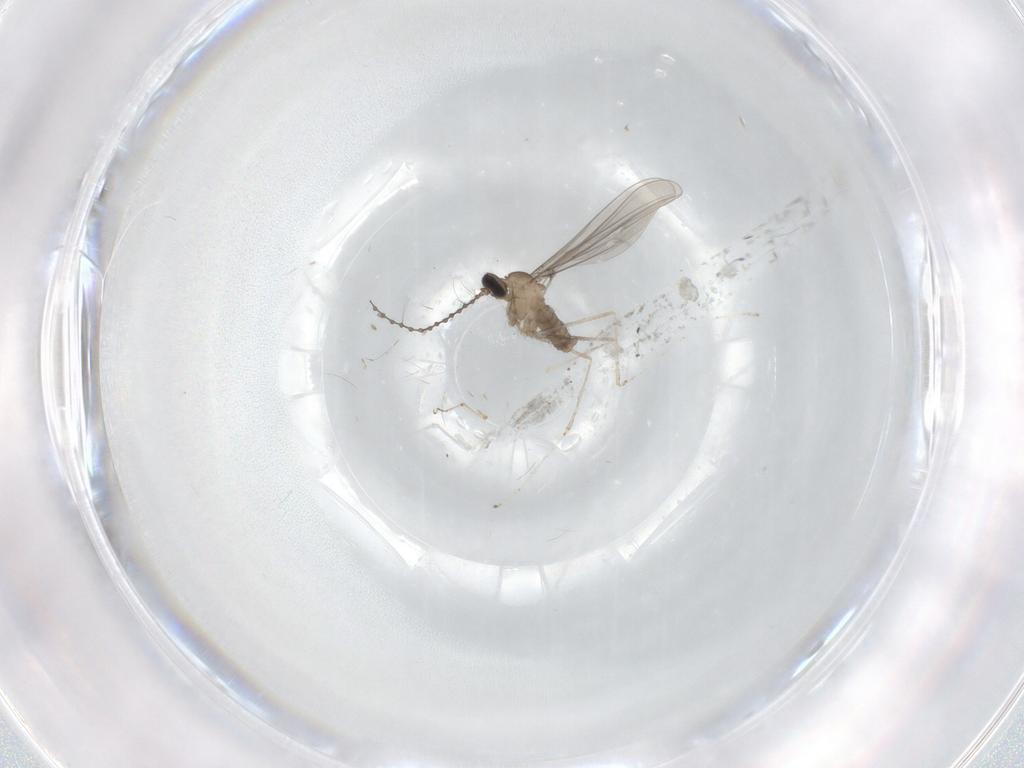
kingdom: Animalia
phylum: Arthropoda
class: Insecta
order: Diptera
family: Cecidomyiidae
